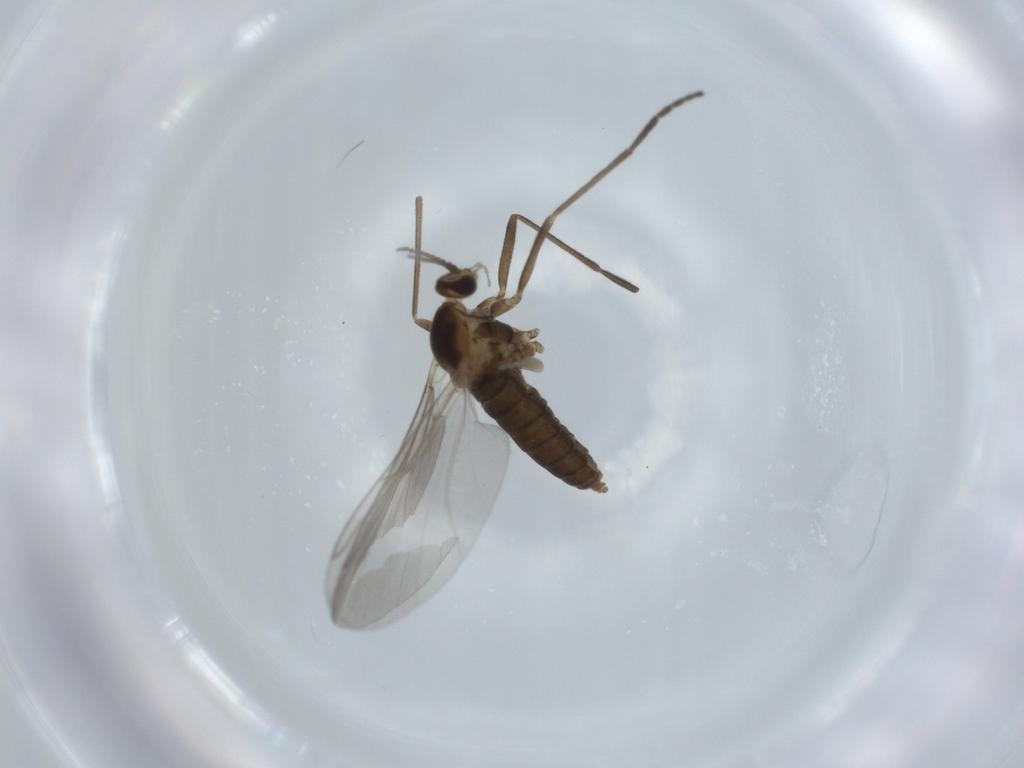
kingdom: Animalia
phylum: Arthropoda
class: Insecta
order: Diptera
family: Cecidomyiidae
